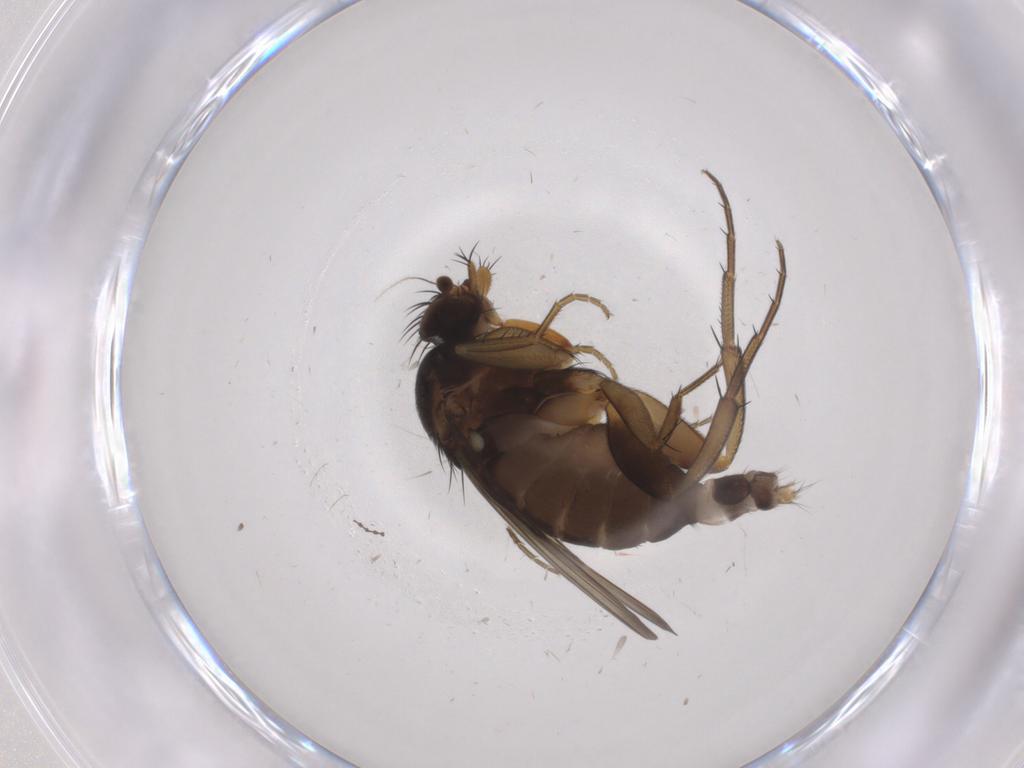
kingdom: Animalia
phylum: Arthropoda
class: Insecta
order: Diptera
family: Phoridae
